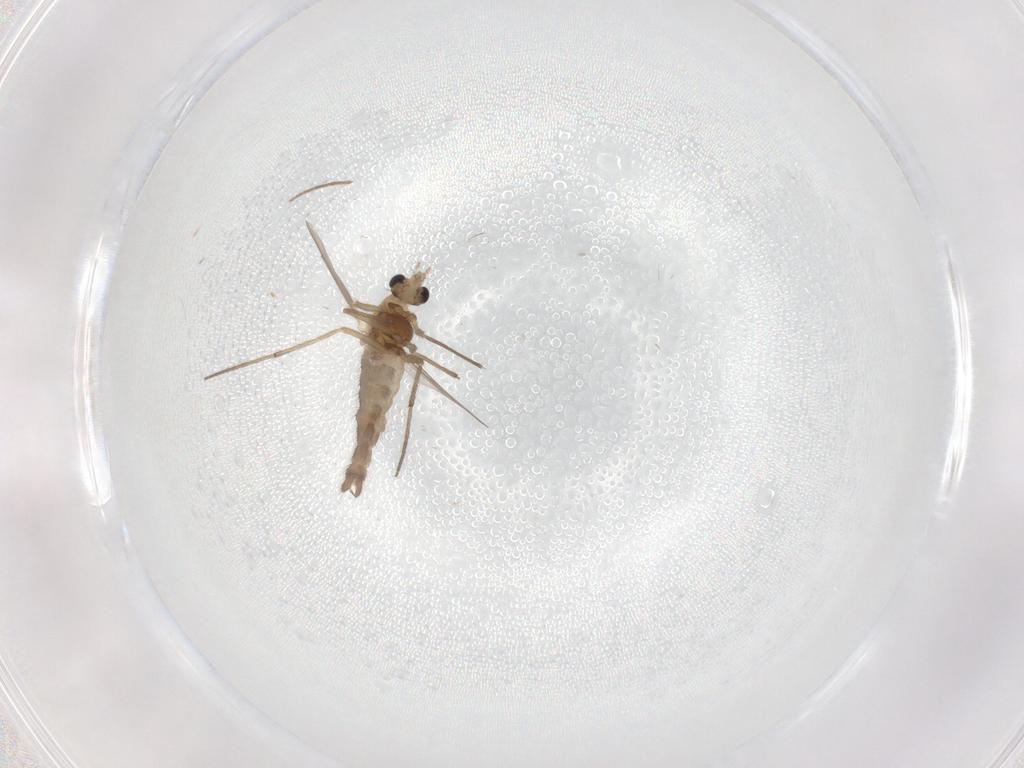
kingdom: Animalia
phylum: Arthropoda
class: Insecta
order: Diptera
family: Chironomidae
